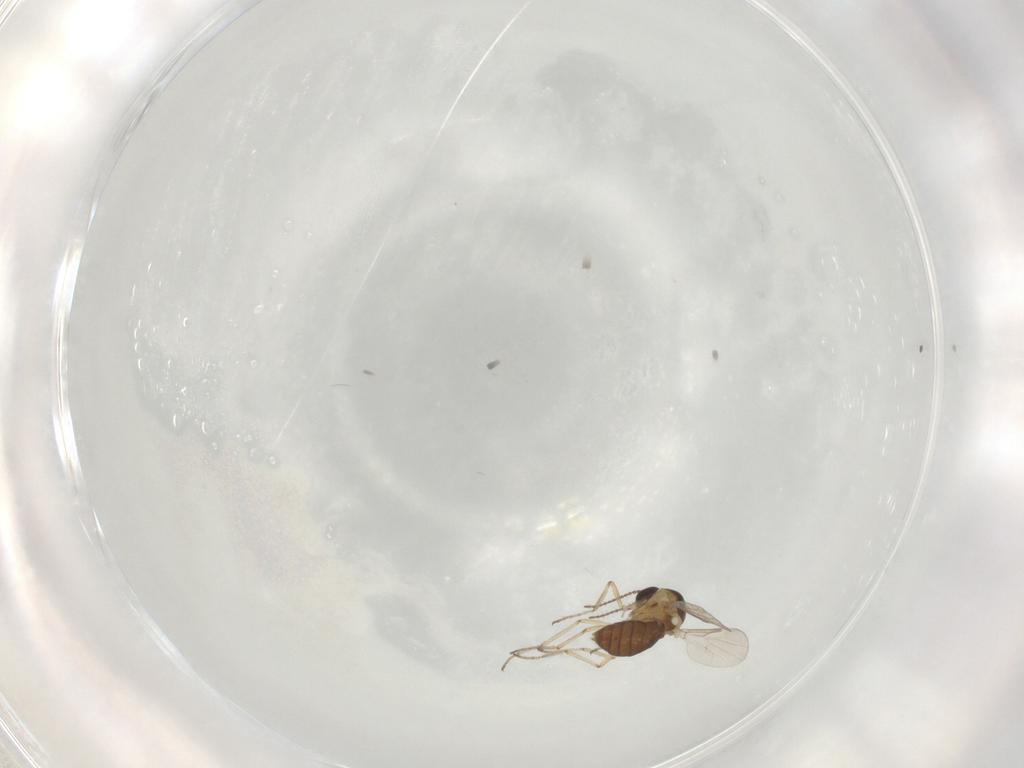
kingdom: Animalia
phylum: Arthropoda
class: Insecta
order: Diptera
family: Ceratopogonidae
